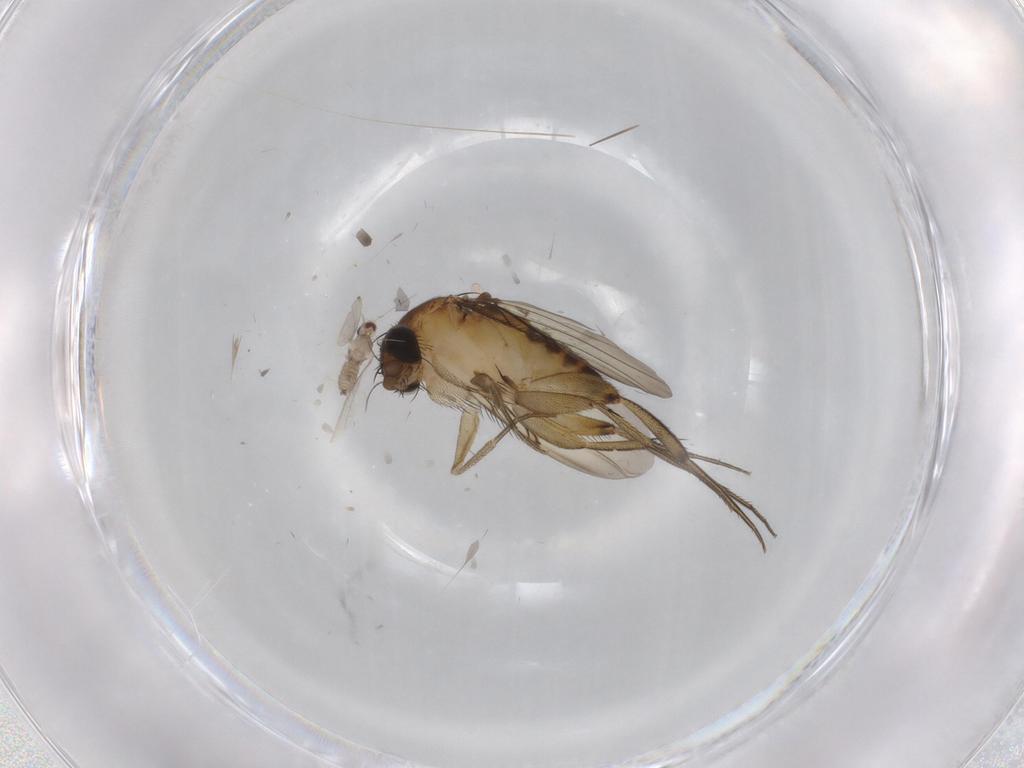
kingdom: Animalia
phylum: Arthropoda
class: Insecta
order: Diptera
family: Phoridae
